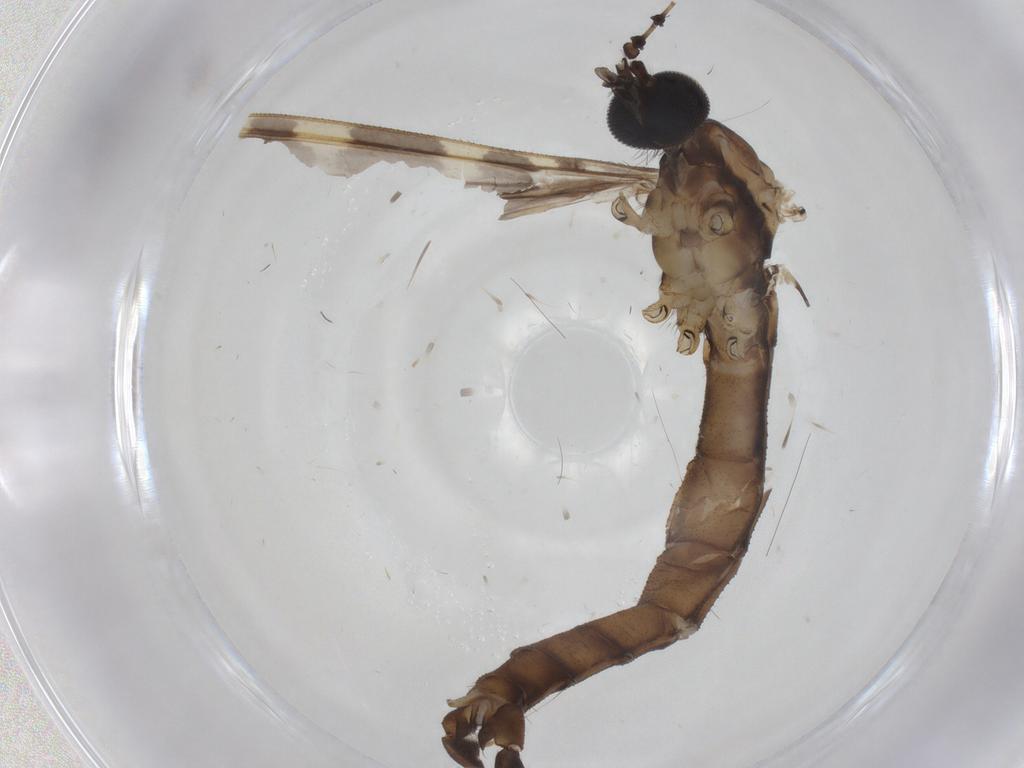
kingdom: Animalia
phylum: Arthropoda
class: Insecta
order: Diptera
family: Limoniidae
